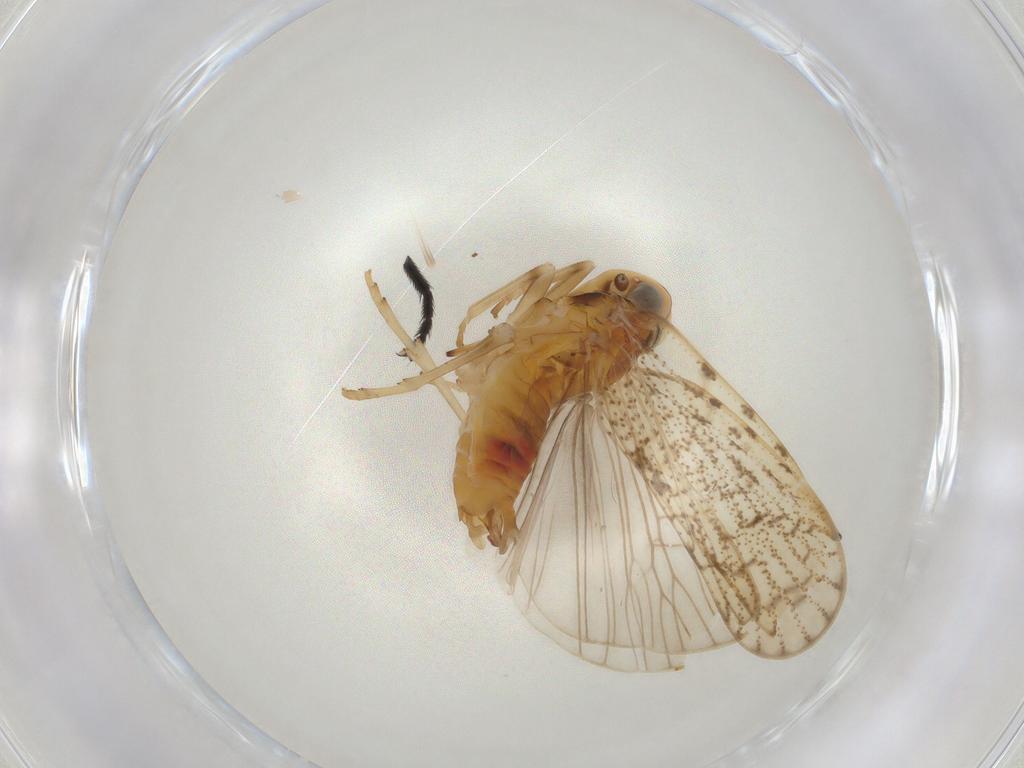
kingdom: Animalia
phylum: Arthropoda
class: Insecta
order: Diptera
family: Muscidae
